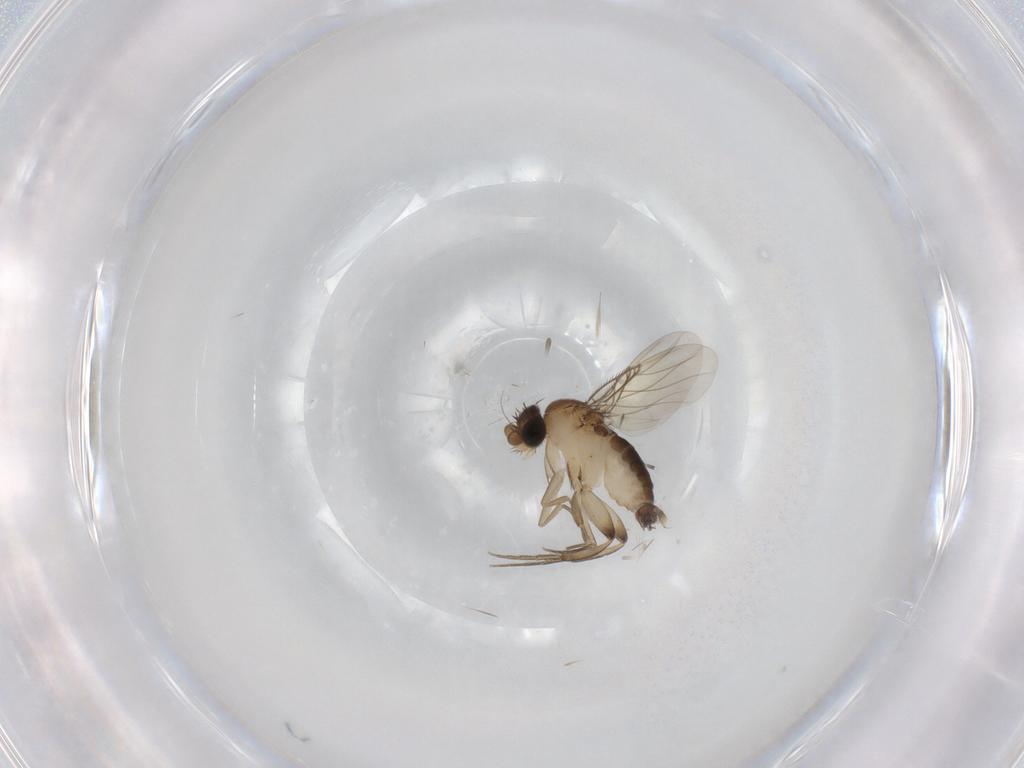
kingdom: Animalia
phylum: Arthropoda
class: Insecta
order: Diptera
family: Phoridae
